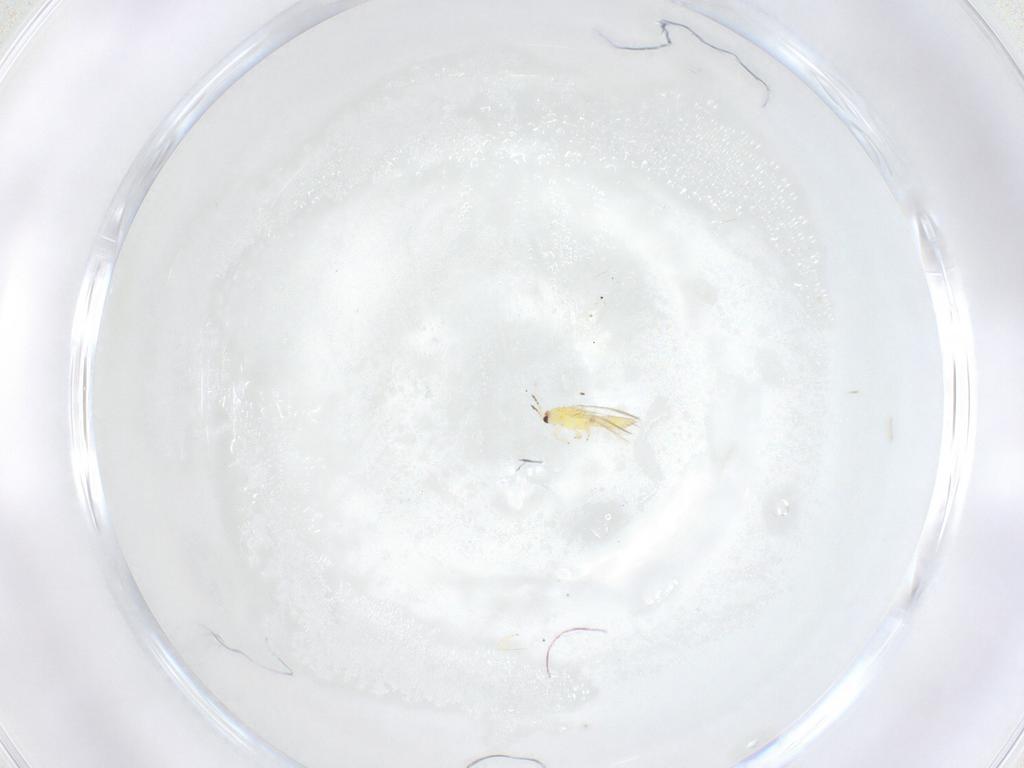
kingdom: Animalia
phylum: Arthropoda
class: Insecta
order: Thysanoptera
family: Thripidae
